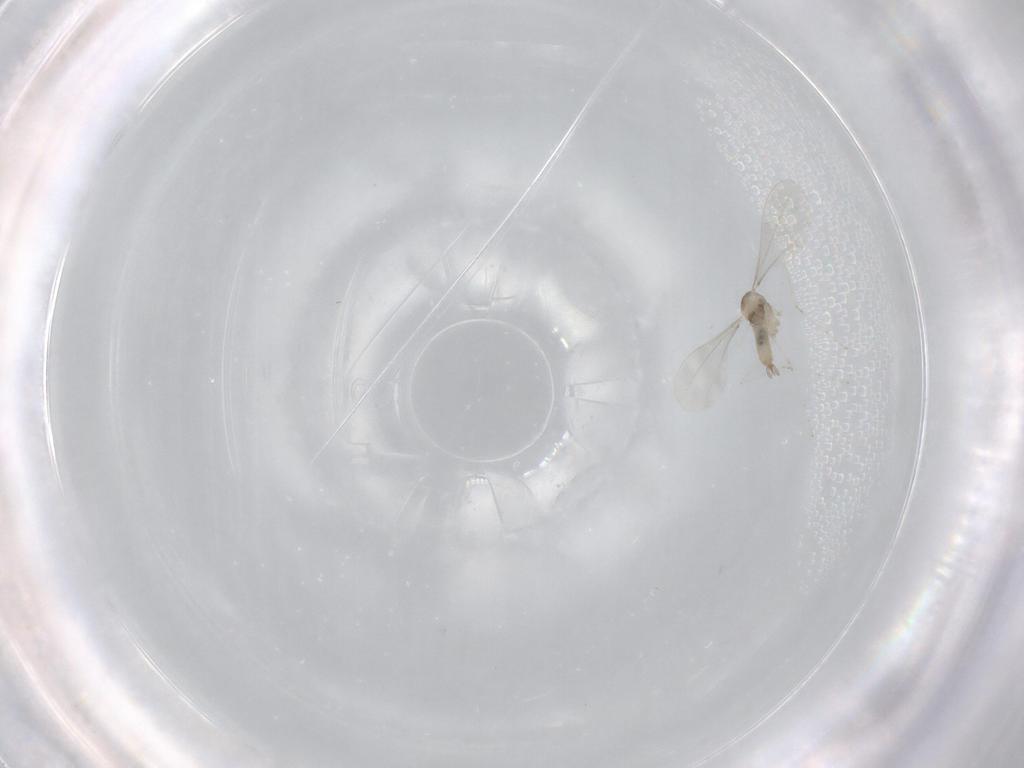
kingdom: Animalia
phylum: Arthropoda
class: Insecta
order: Diptera
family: Cecidomyiidae
